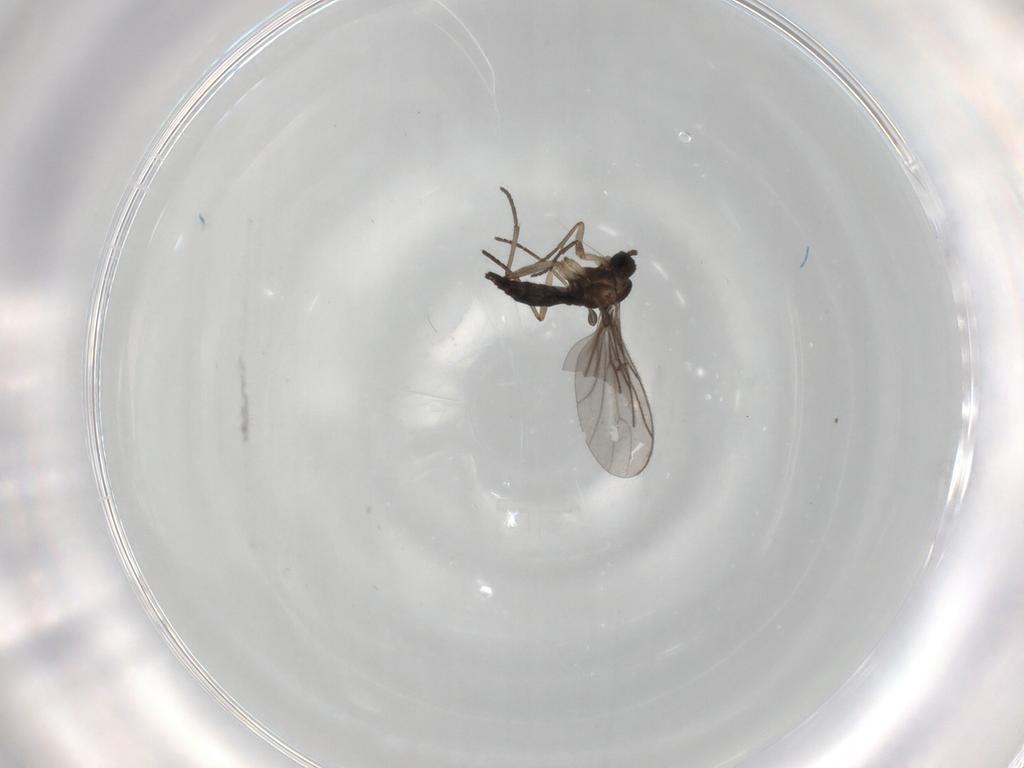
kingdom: Animalia
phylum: Arthropoda
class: Insecta
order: Diptera
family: Sciaridae
